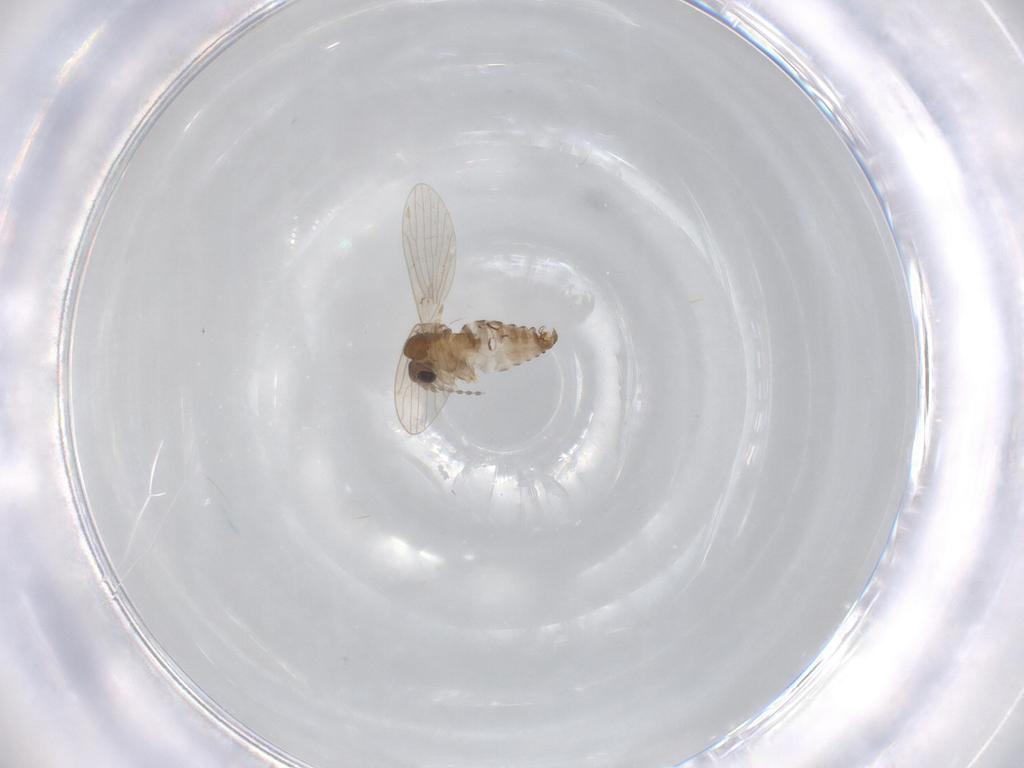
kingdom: Animalia
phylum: Arthropoda
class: Insecta
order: Diptera
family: Psychodidae
